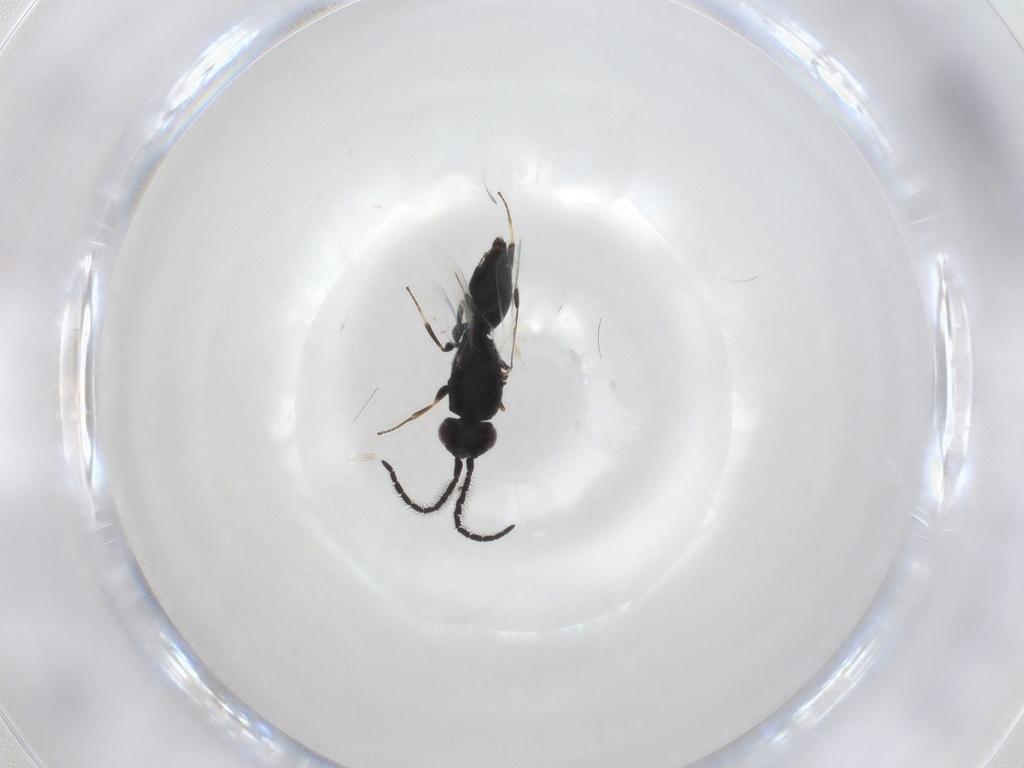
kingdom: Animalia
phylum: Arthropoda
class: Insecta
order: Hymenoptera
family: Megaspilidae
